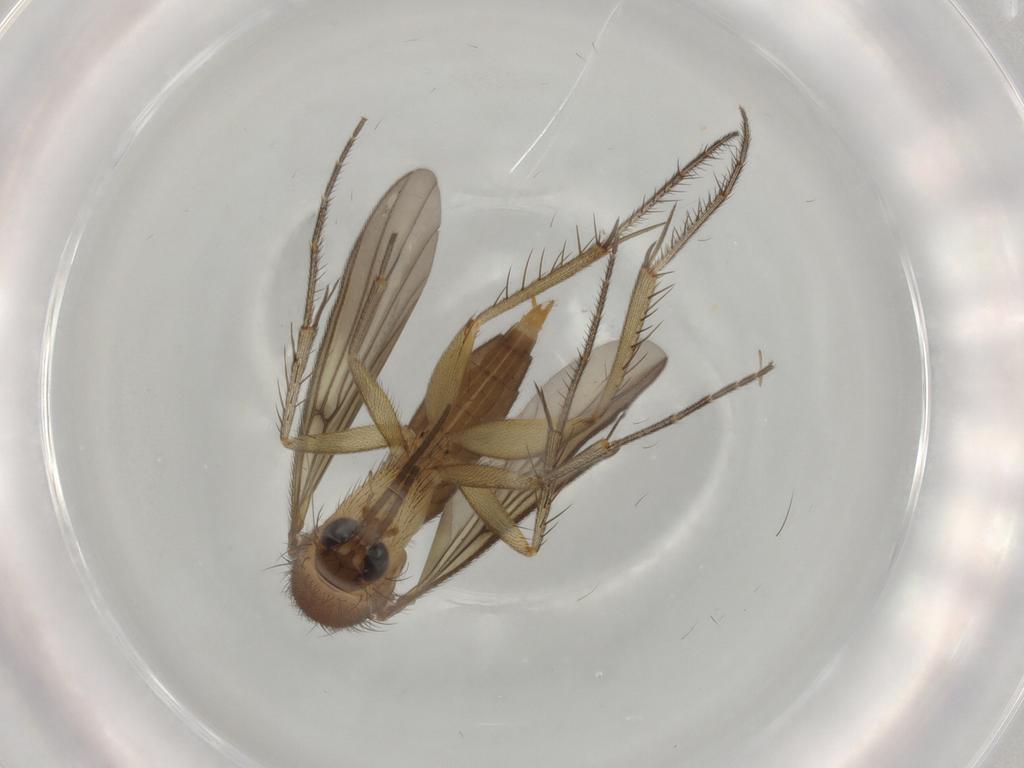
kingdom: Animalia
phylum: Arthropoda
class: Insecta
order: Diptera
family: Mycetophilidae
